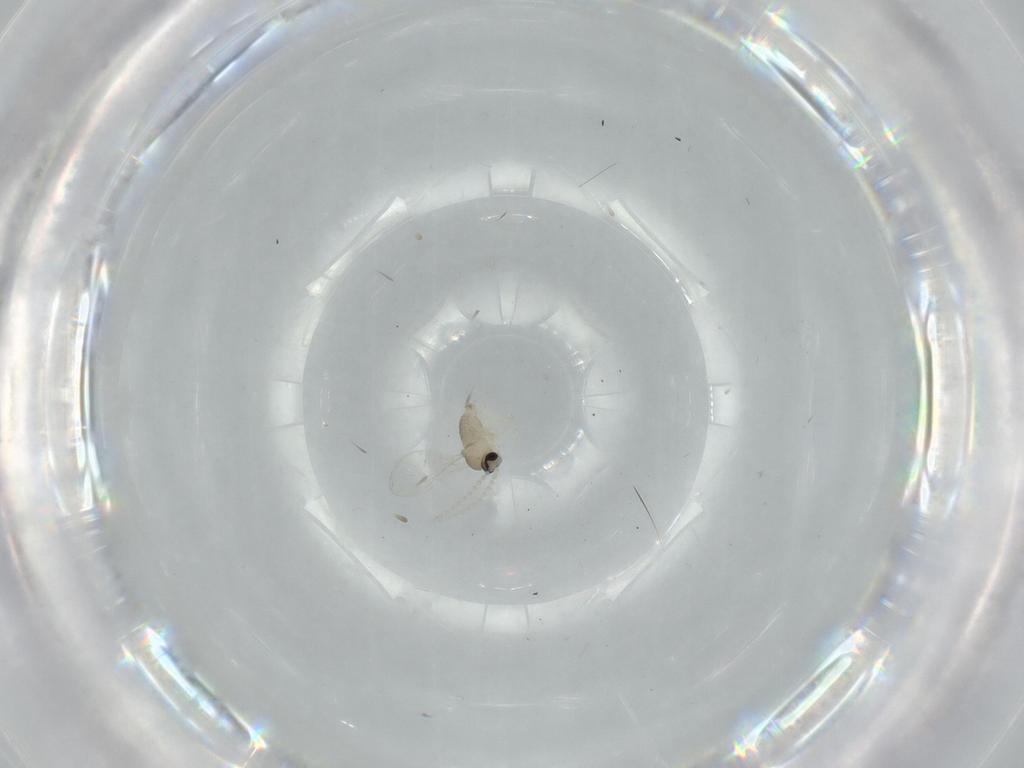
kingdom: Animalia
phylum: Arthropoda
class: Insecta
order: Diptera
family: Cecidomyiidae
